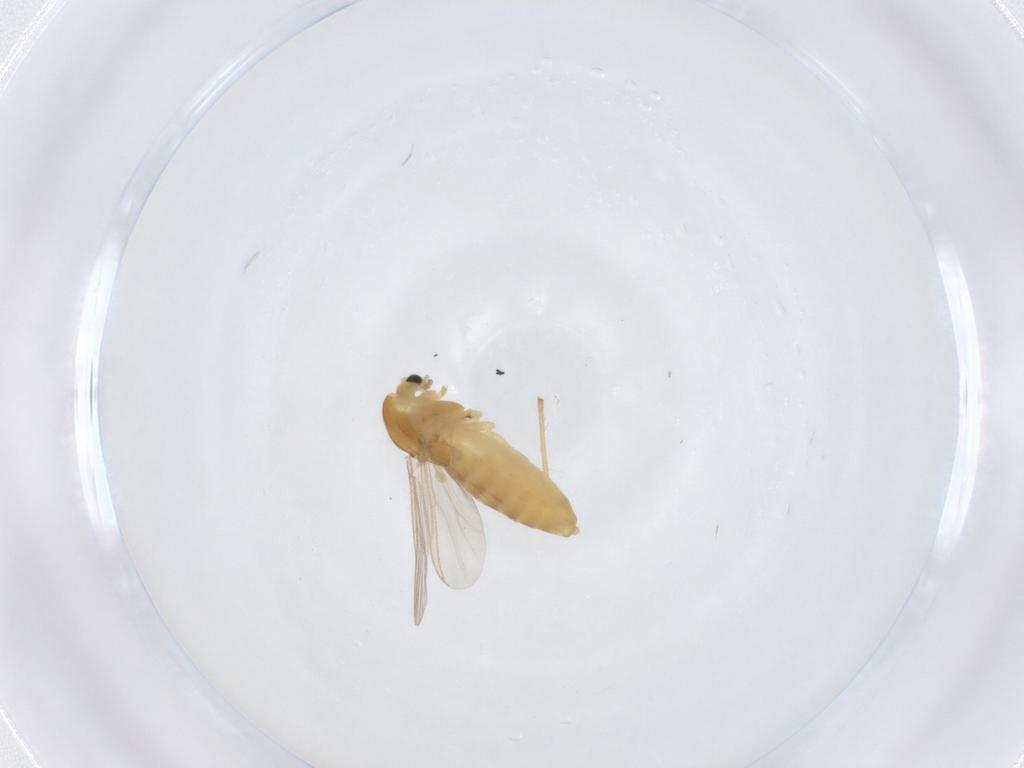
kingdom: Animalia
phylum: Arthropoda
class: Insecta
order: Diptera
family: Chironomidae
